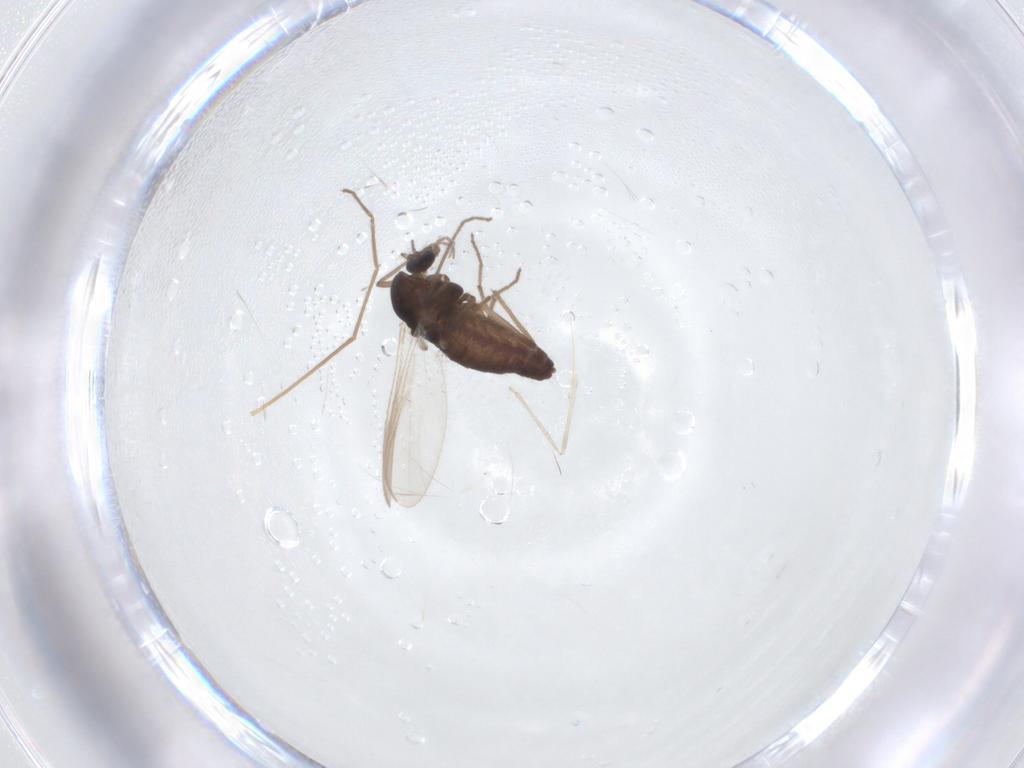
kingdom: Animalia
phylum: Arthropoda
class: Insecta
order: Diptera
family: Chironomidae
